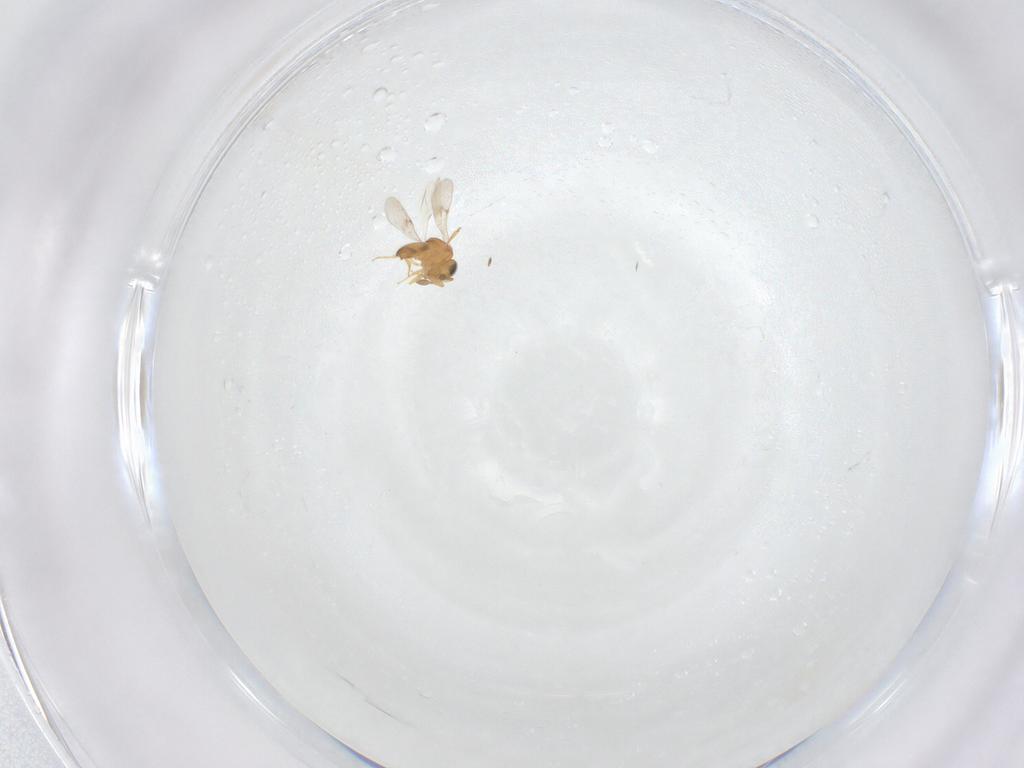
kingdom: Animalia
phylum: Arthropoda
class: Insecta
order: Hymenoptera
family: Scelionidae
